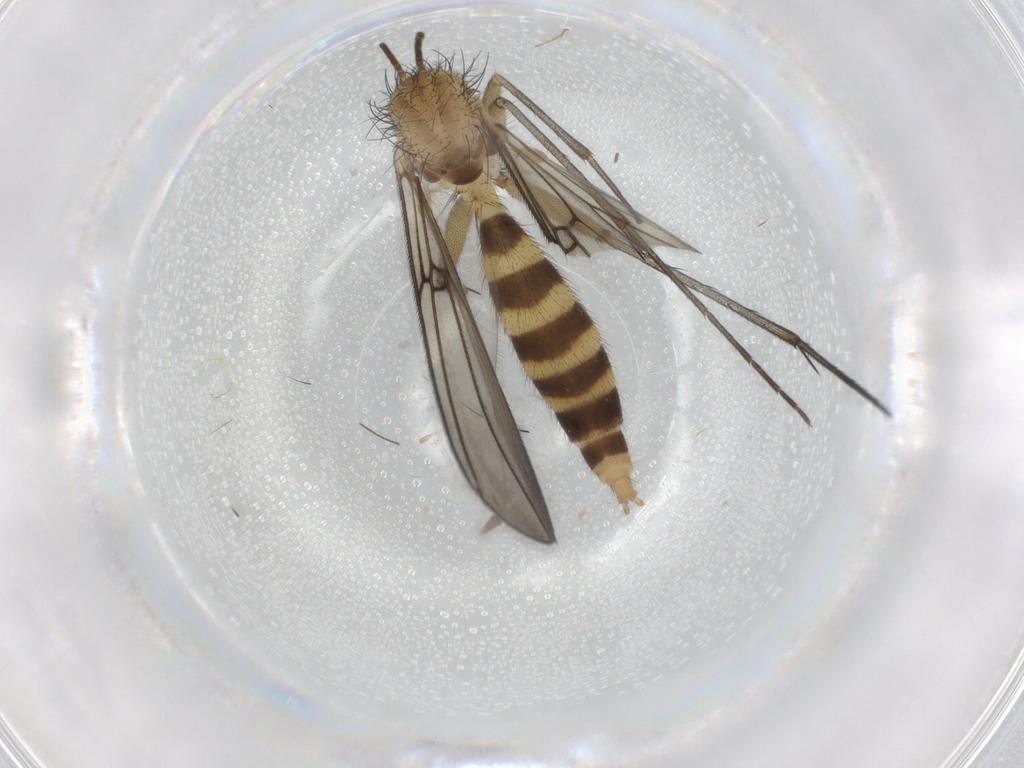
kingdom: Animalia
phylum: Arthropoda
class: Insecta
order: Diptera
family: Mycetophilidae
